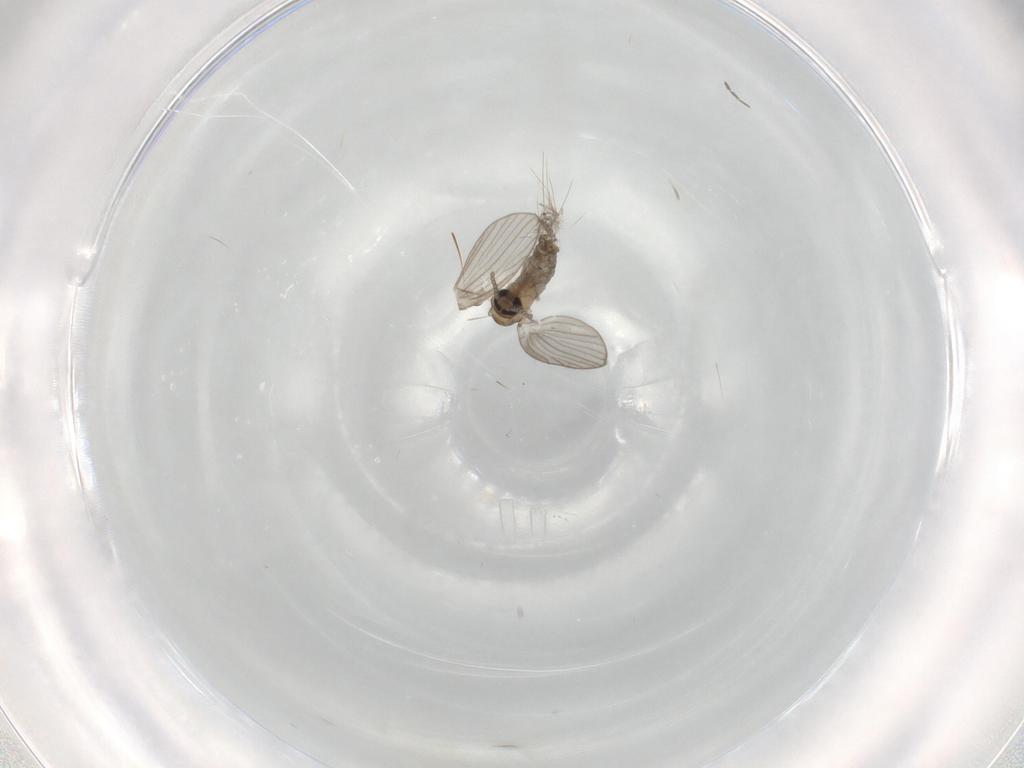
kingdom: Animalia
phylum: Arthropoda
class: Insecta
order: Diptera
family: Psychodidae
